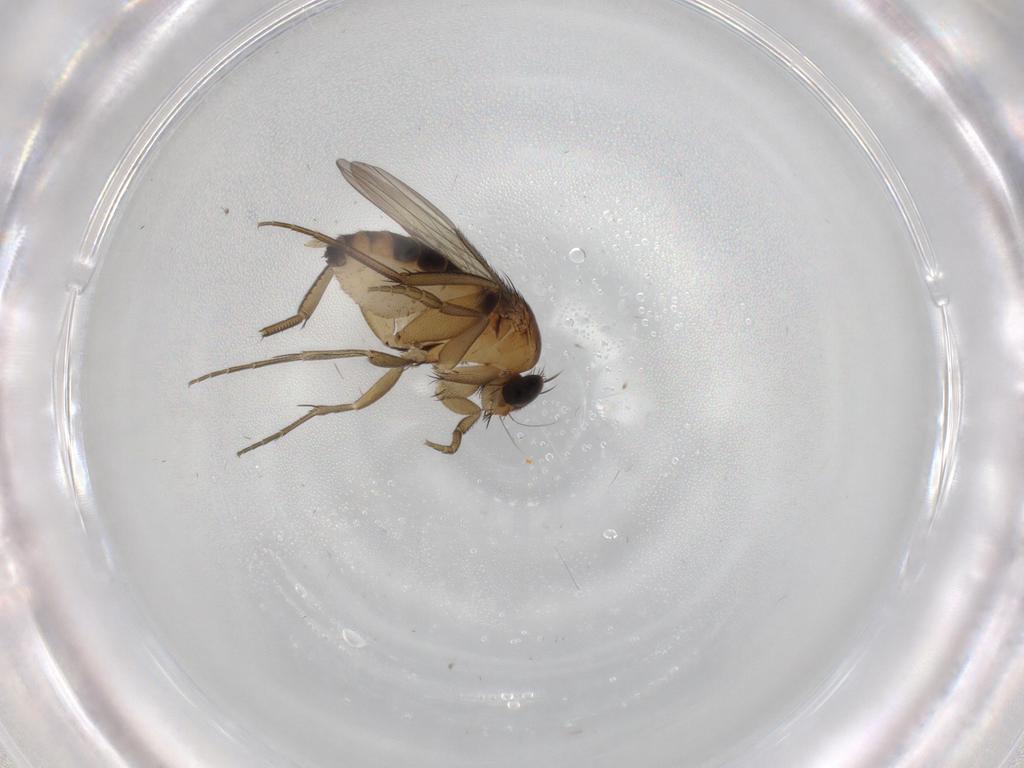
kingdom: Animalia
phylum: Arthropoda
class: Insecta
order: Diptera
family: Phoridae
